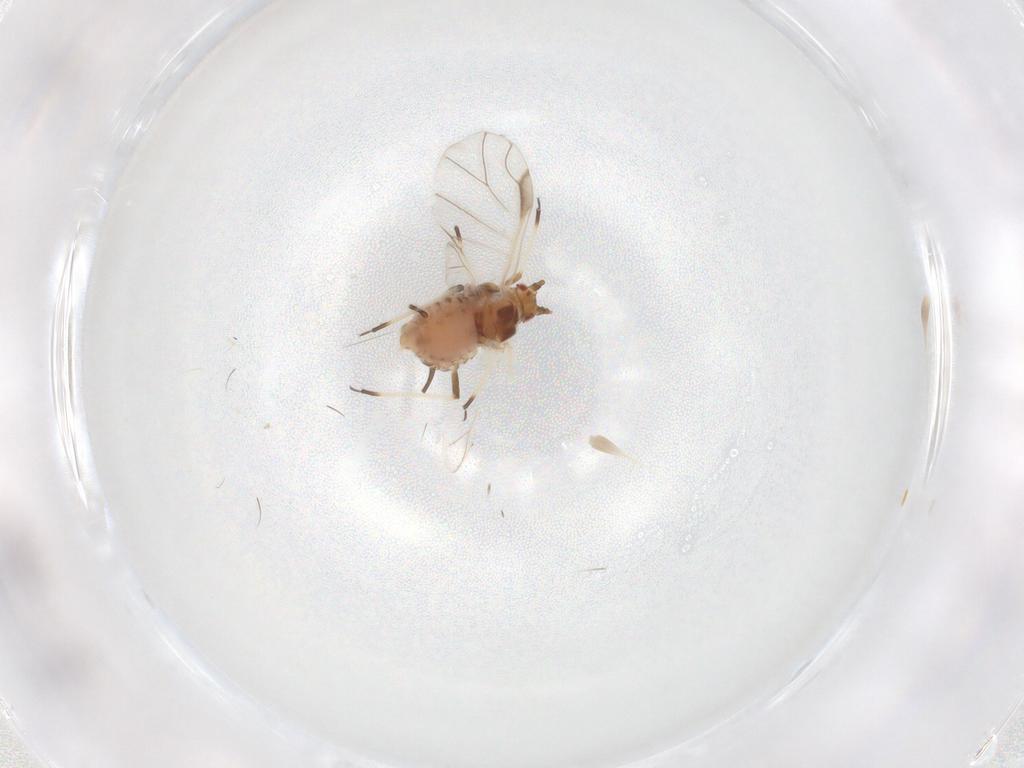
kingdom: Animalia
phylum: Arthropoda
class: Insecta
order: Hemiptera
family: Aphididae
